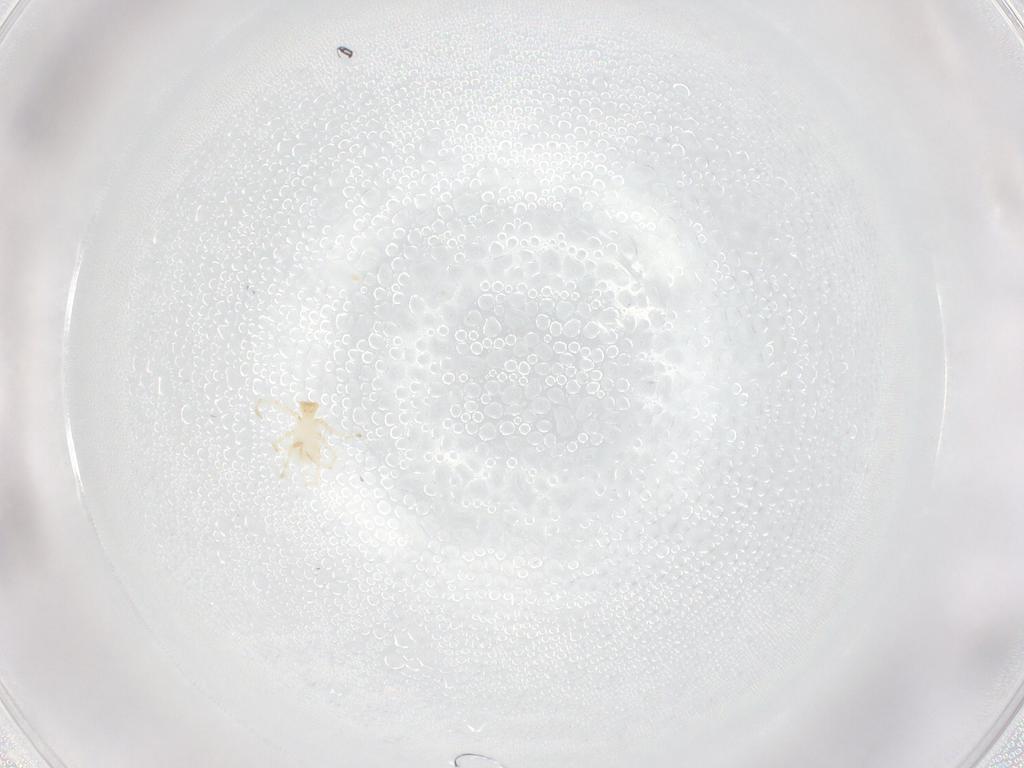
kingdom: Animalia
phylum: Arthropoda
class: Arachnida
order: Trombidiformes
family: Erythraeidae
